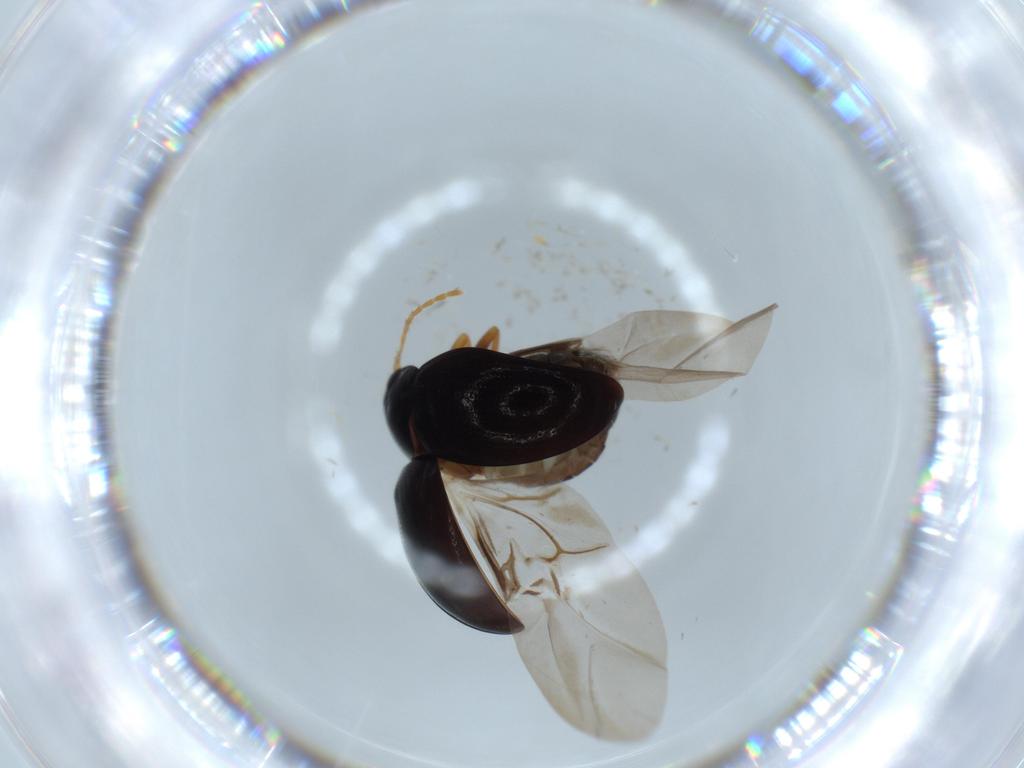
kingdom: Animalia
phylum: Arthropoda
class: Insecta
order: Coleoptera
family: Chrysomelidae
